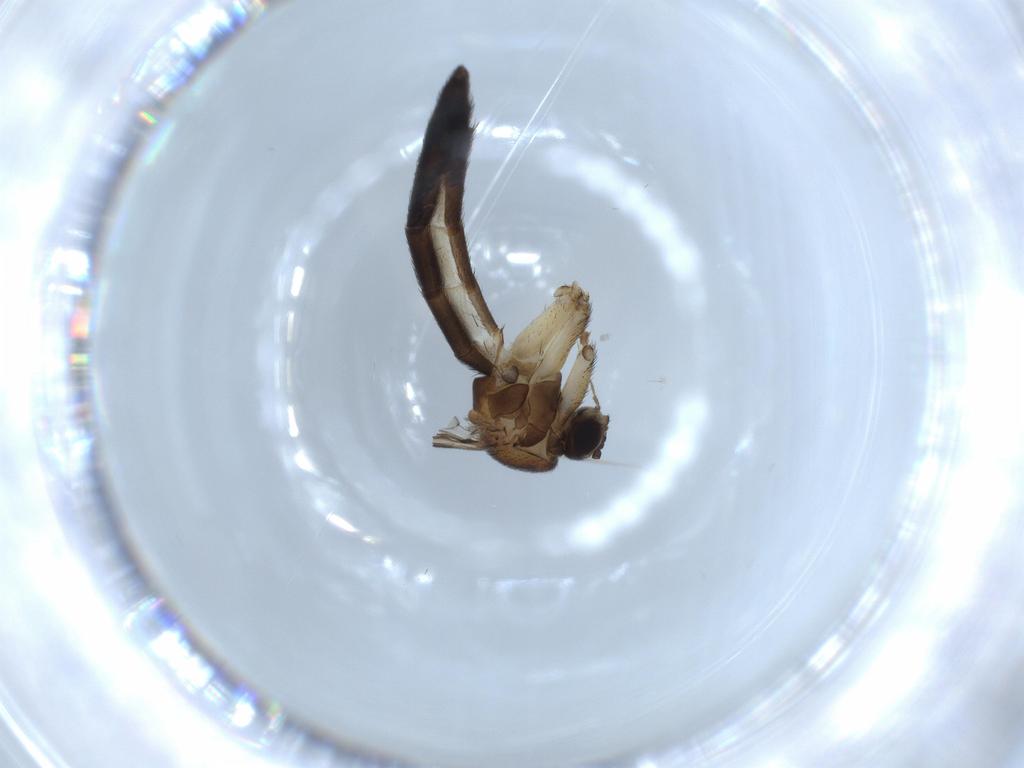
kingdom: Animalia
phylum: Arthropoda
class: Insecta
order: Diptera
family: Chironomidae
